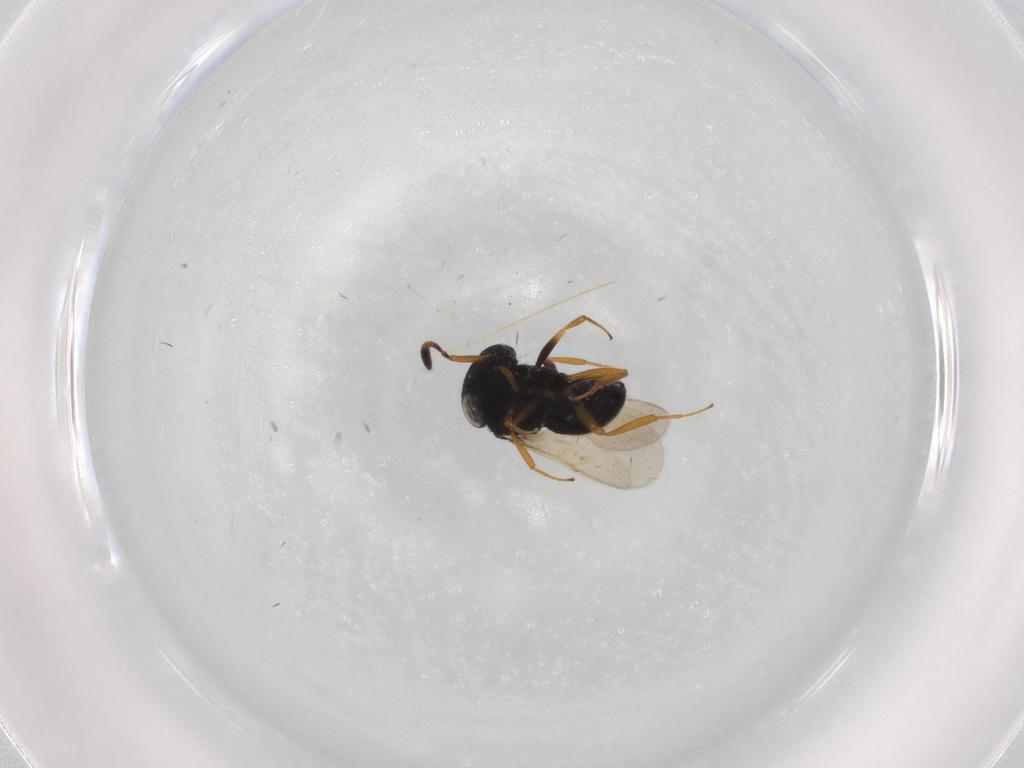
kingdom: Animalia
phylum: Arthropoda
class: Insecta
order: Hymenoptera
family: Scelionidae
